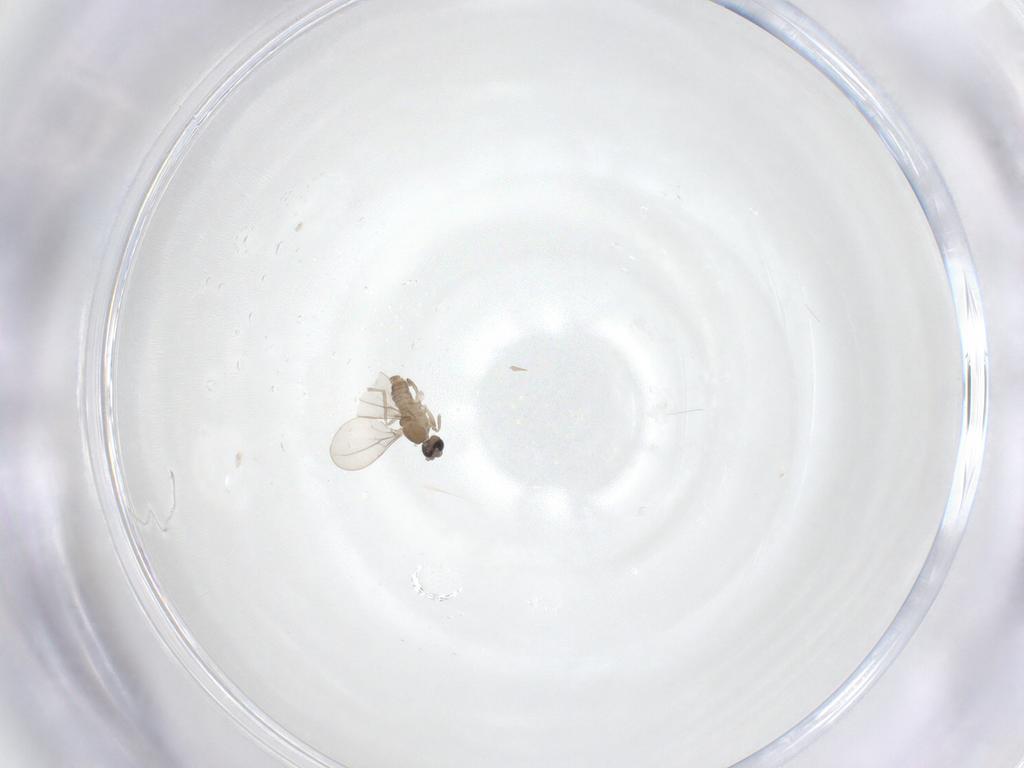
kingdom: Animalia
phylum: Arthropoda
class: Insecta
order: Diptera
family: Cecidomyiidae
